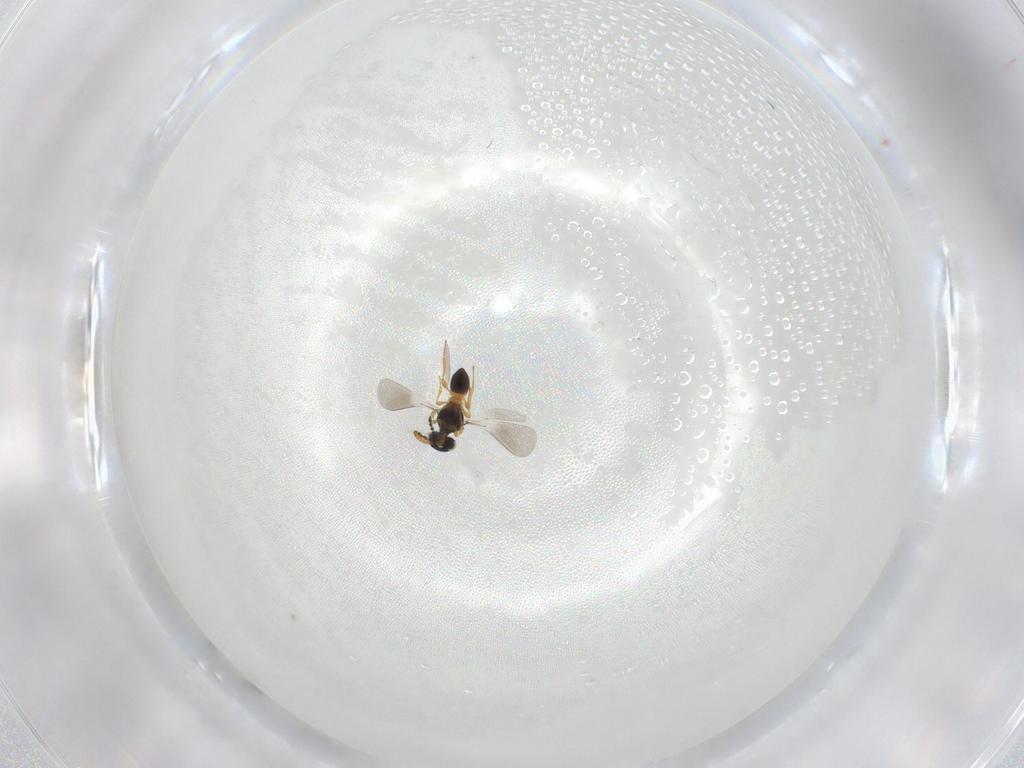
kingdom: Animalia
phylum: Arthropoda
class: Insecta
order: Hymenoptera
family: Platygastridae
